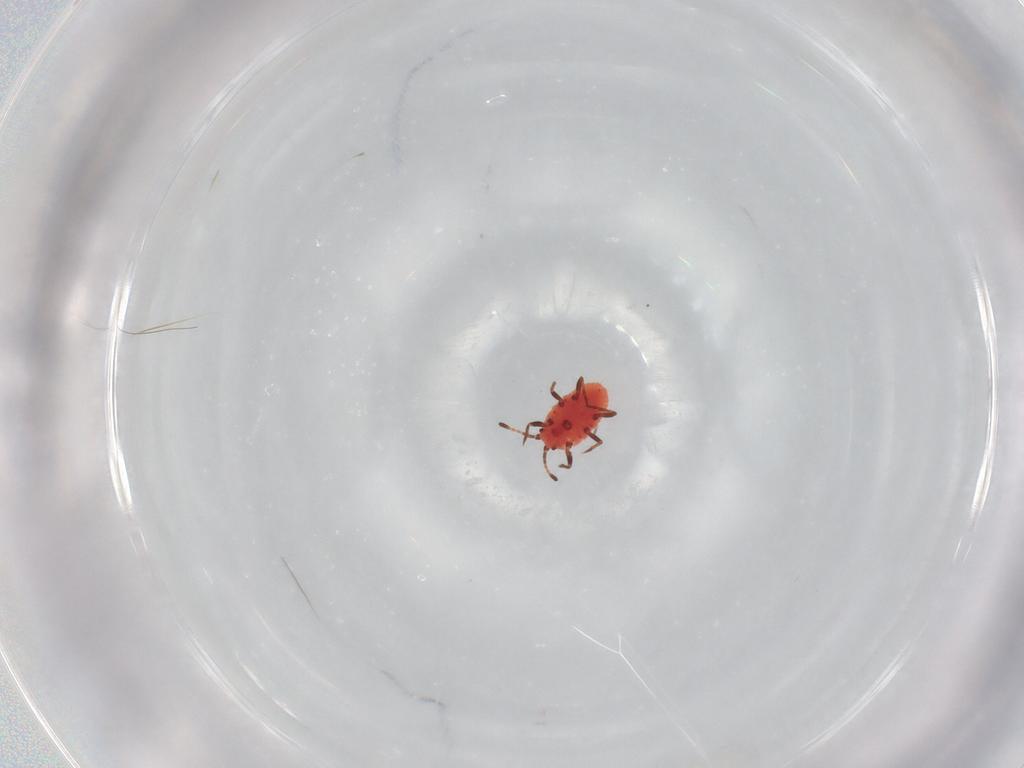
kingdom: Animalia
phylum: Arthropoda
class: Insecta
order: Hemiptera
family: Coccoidea_incertae_sedis
